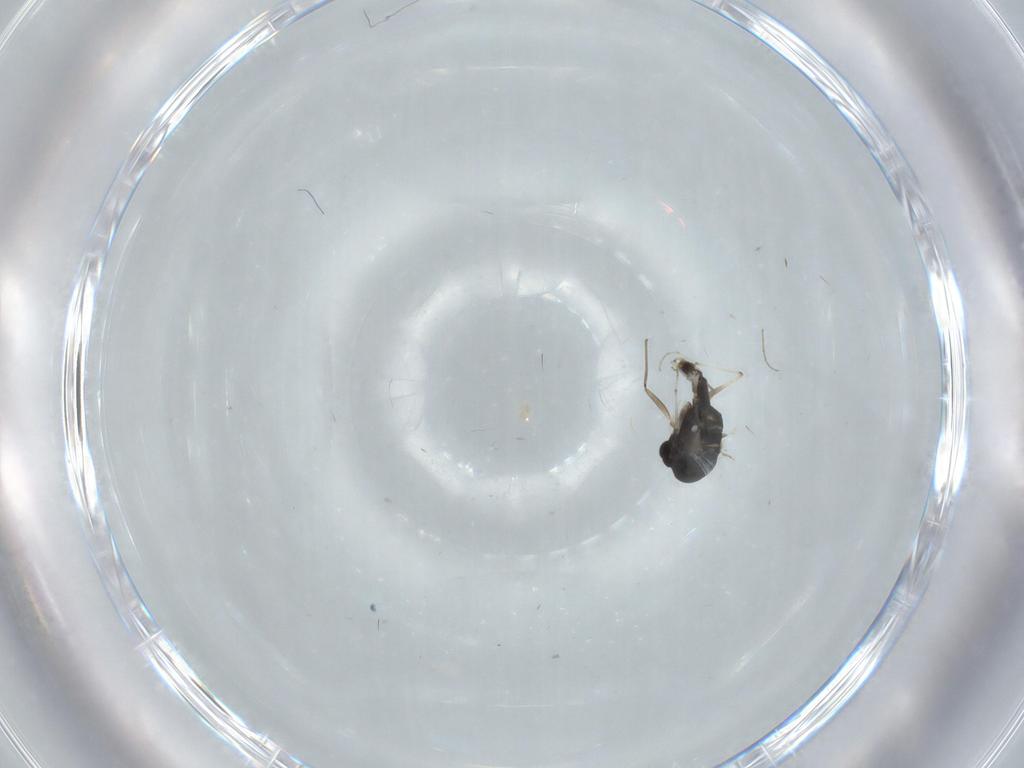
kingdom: Animalia
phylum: Arthropoda
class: Insecta
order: Diptera
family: Chironomidae
